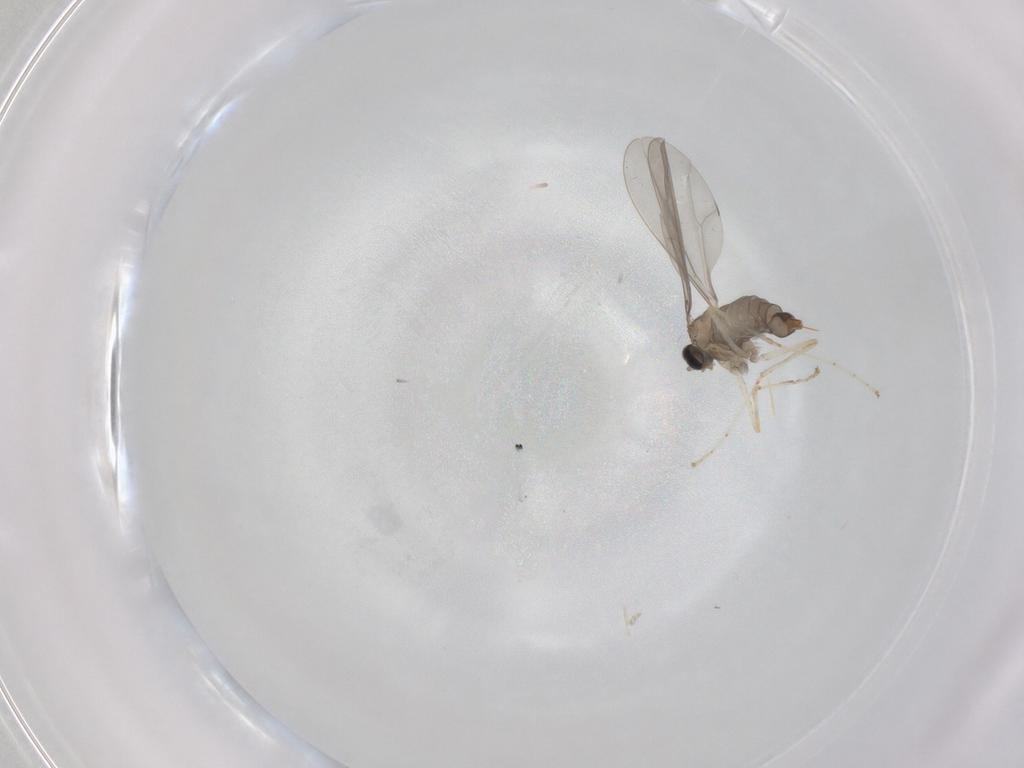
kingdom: Animalia
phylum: Arthropoda
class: Insecta
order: Diptera
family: Cecidomyiidae
